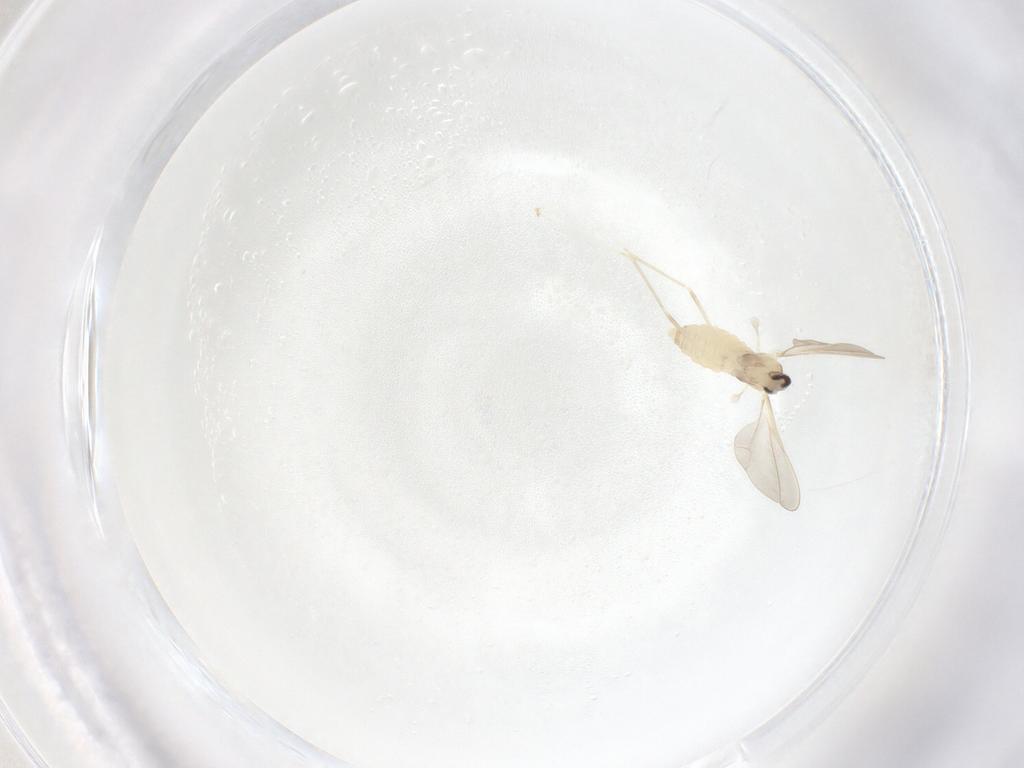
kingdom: Animalia
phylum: Arthropoda
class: Insecta
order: Diptera
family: Cecidomyiidae
